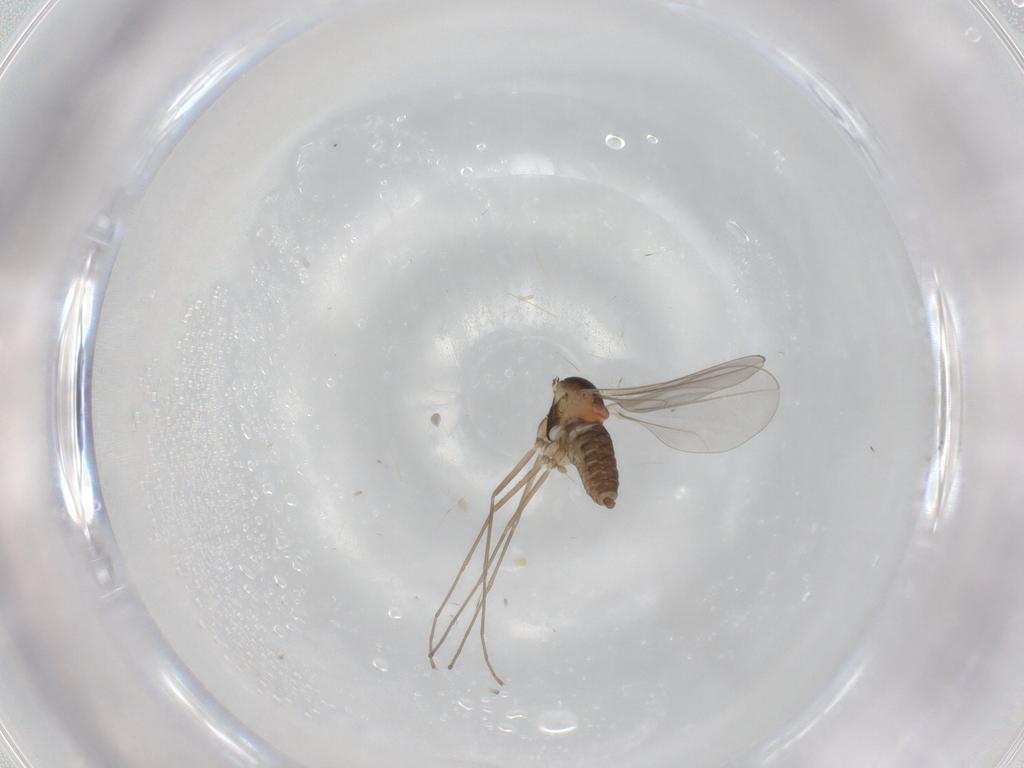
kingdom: Animalia
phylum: Arthropoda
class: Insecta
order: Diptera
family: Cecidomyiidae
